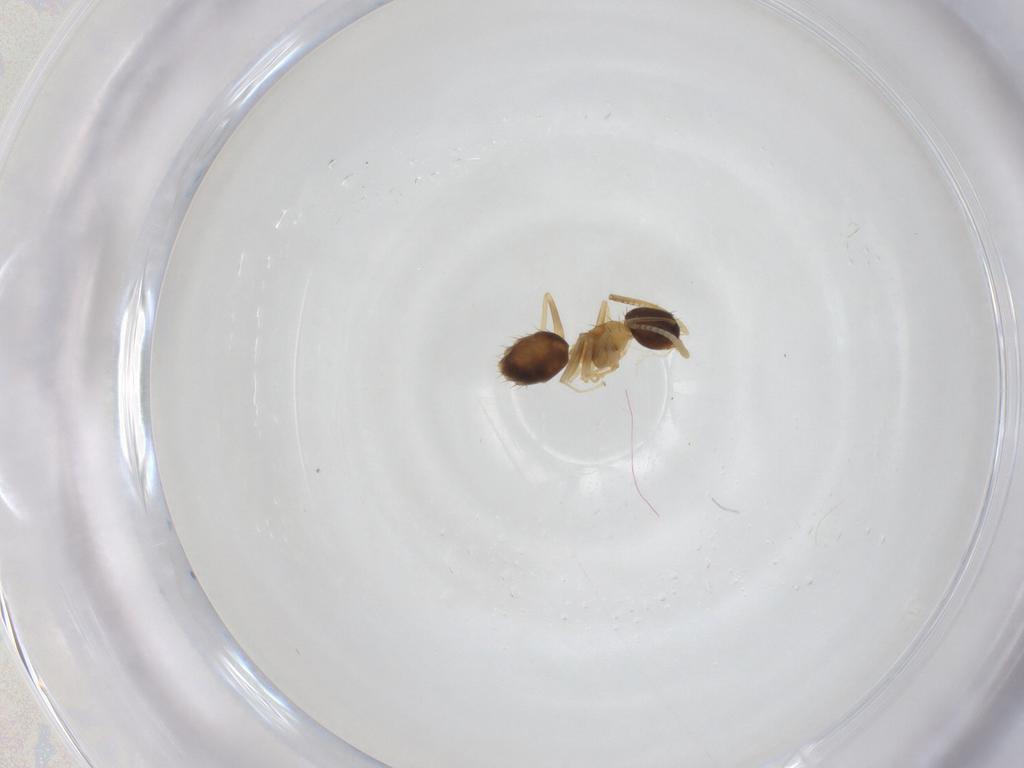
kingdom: Animalia
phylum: Arthropoda
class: Insecta
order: Hymenoptera
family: Formicidae
